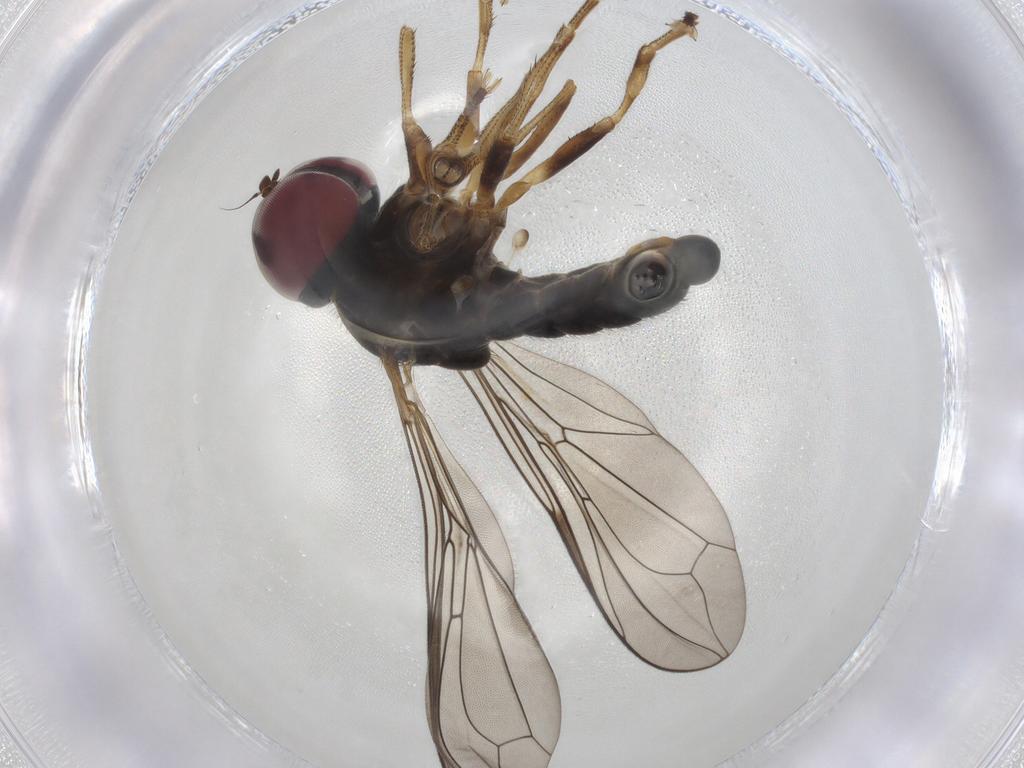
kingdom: Animalia
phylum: Arthropoda
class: Insecta
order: Diptera
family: Pipunculidae
